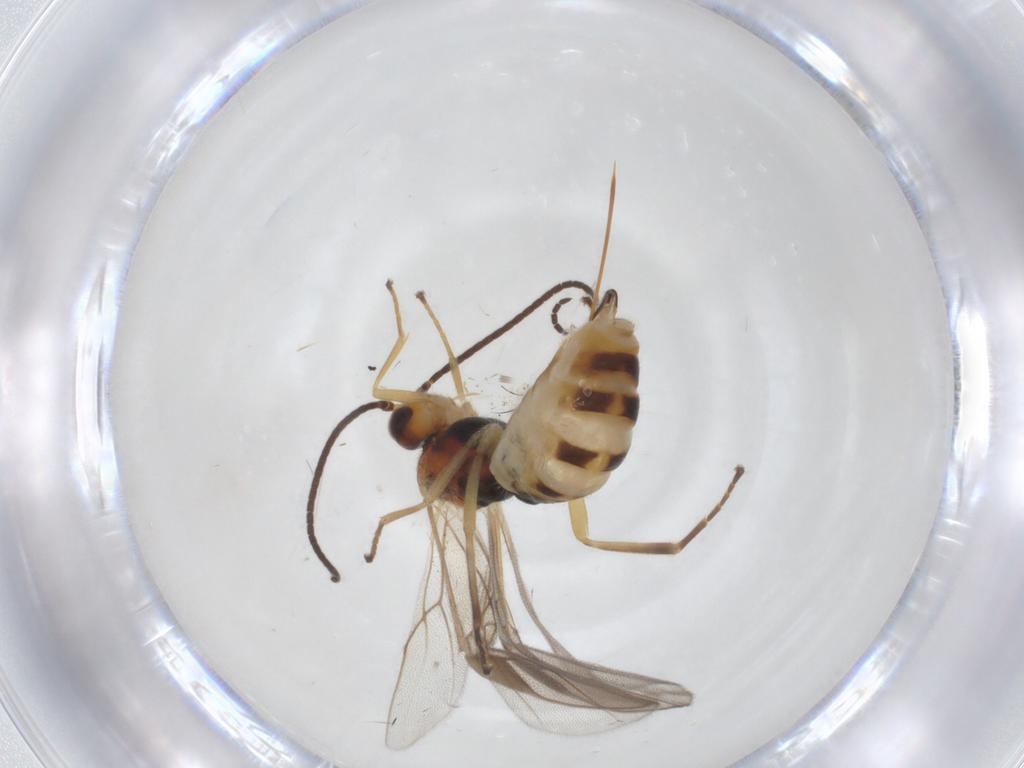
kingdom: Animalia
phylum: Arthropoda
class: Insecta
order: Hymenoptera
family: Braconidae
